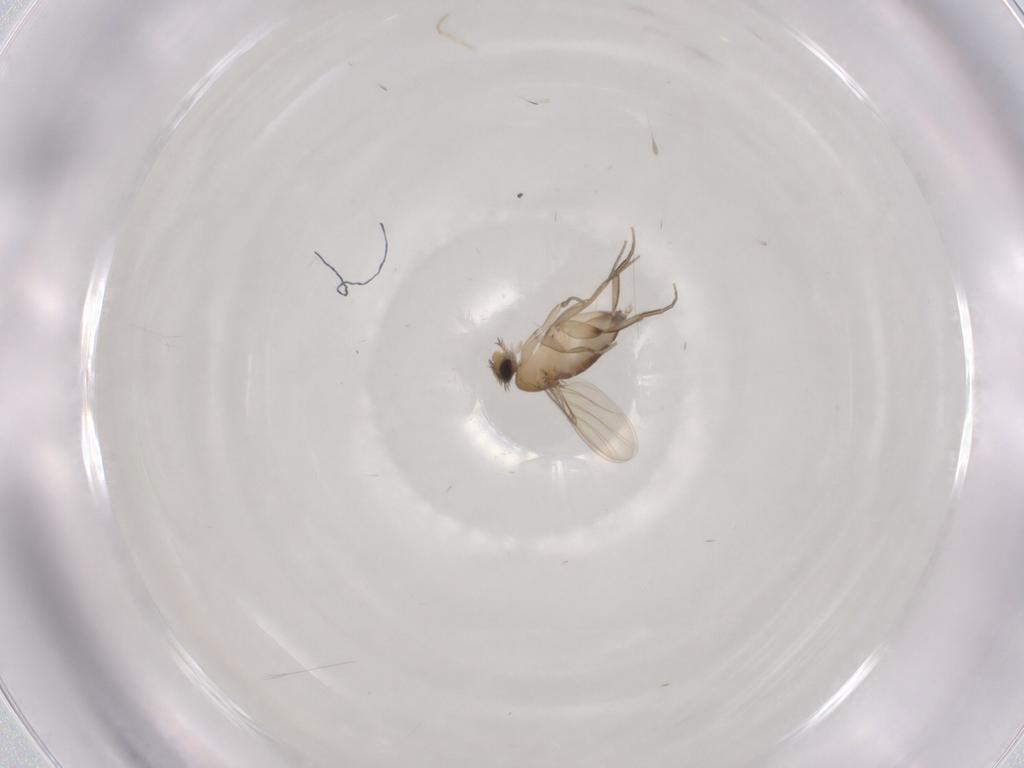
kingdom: Animalia
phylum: Arthropoda
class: Insecta
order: Diptera
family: Phoridae
